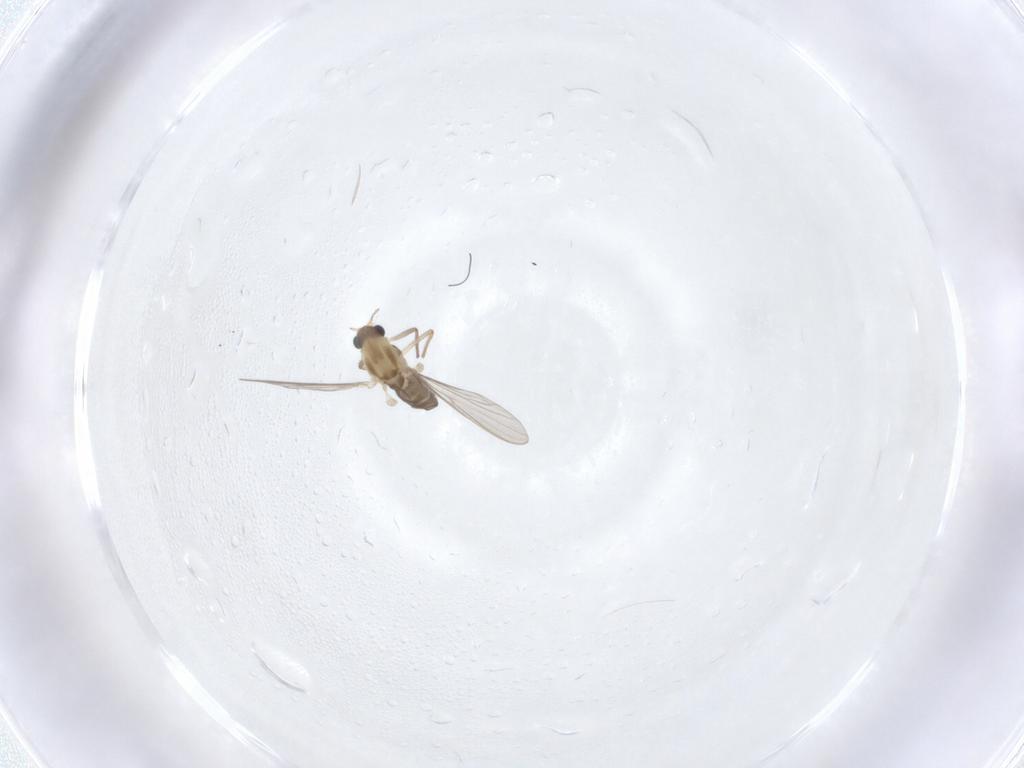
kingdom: Animalia
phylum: Arthropoda
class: Insecta
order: Diptera
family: Chironomidae
